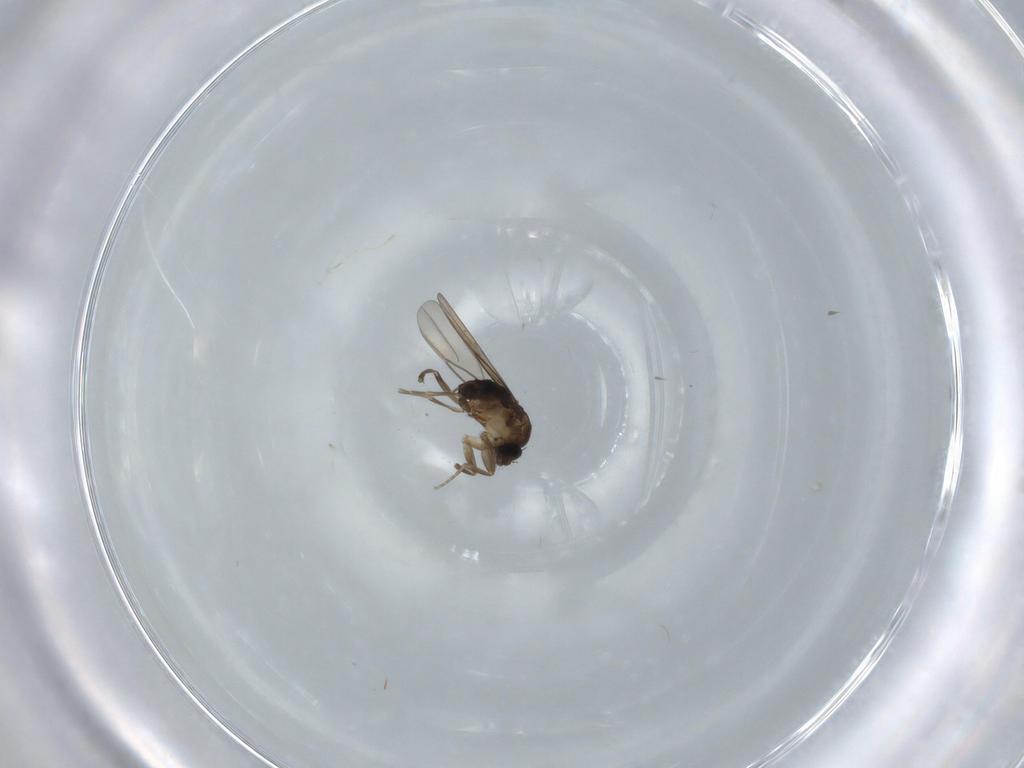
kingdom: Animalia
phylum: Arthropoda
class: Insecta
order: Diptera
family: Phoridae
